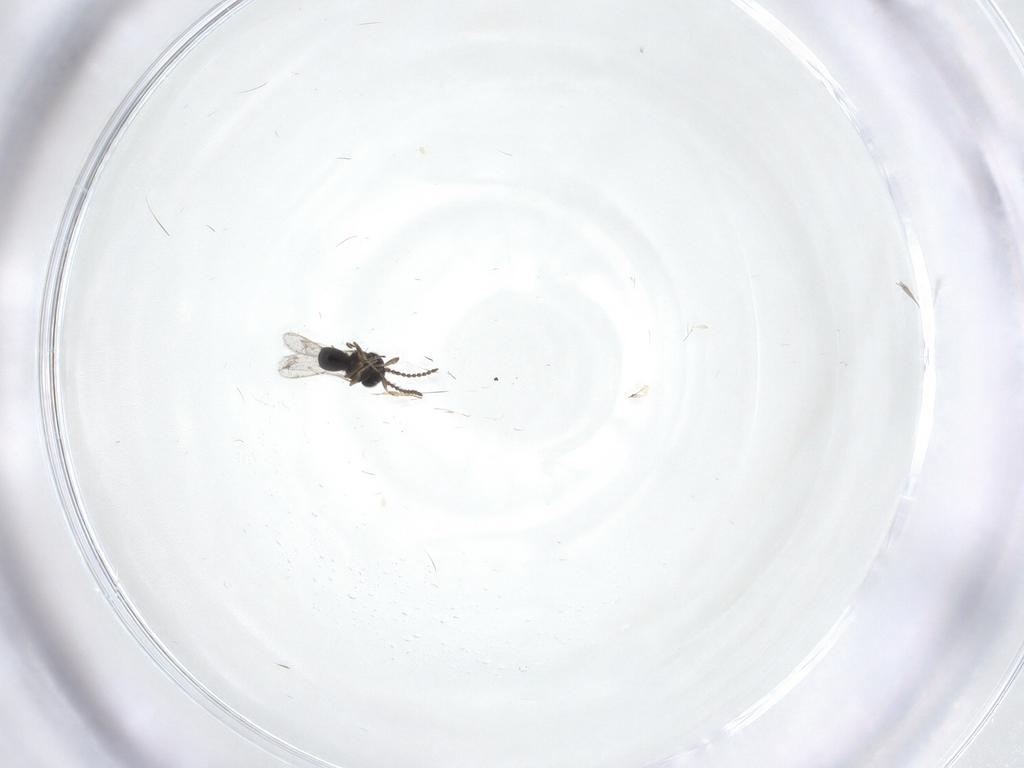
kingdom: Animalia
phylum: Arthropoda
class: Insecta
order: Hymenoptera
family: Scelionidae
